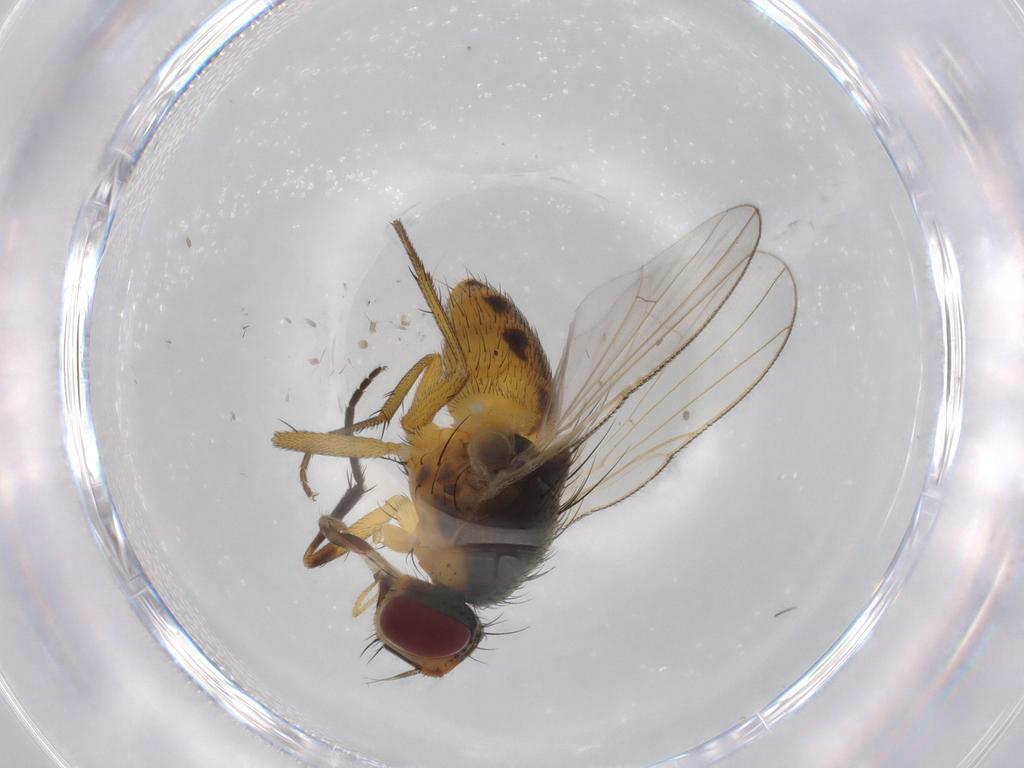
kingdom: Animalia
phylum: Arthropoda
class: Insecta
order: Diptera
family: Muscidae
